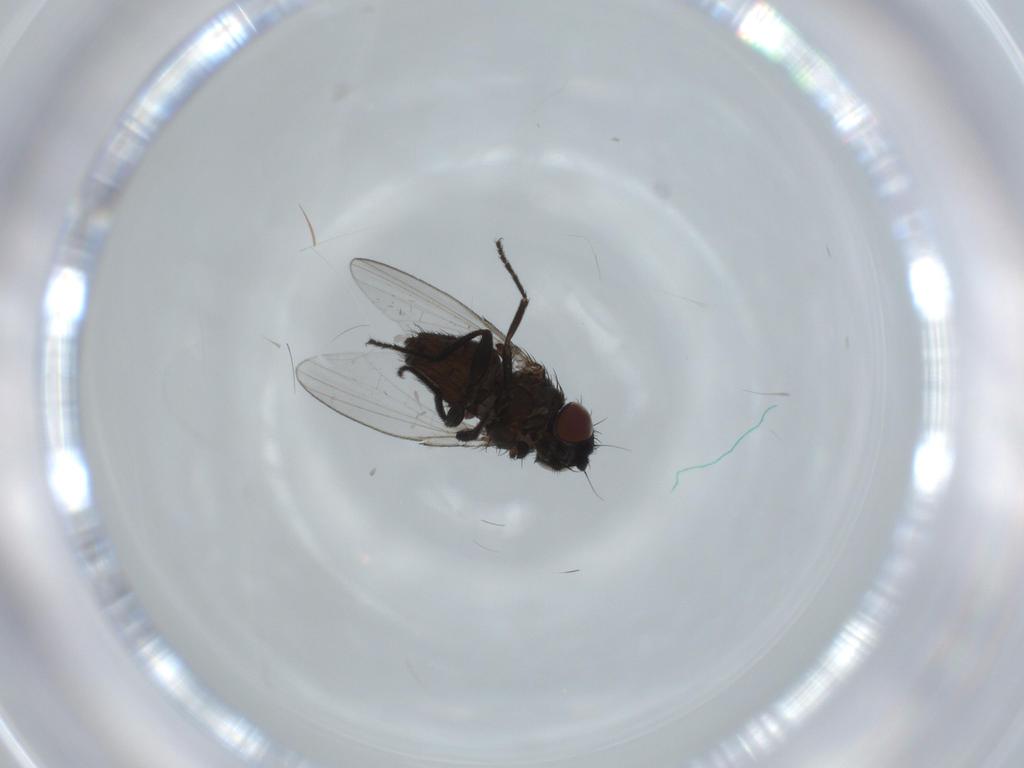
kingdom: Animalia
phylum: Arthropoda
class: Insecta
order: Diptera
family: Milichiidae
